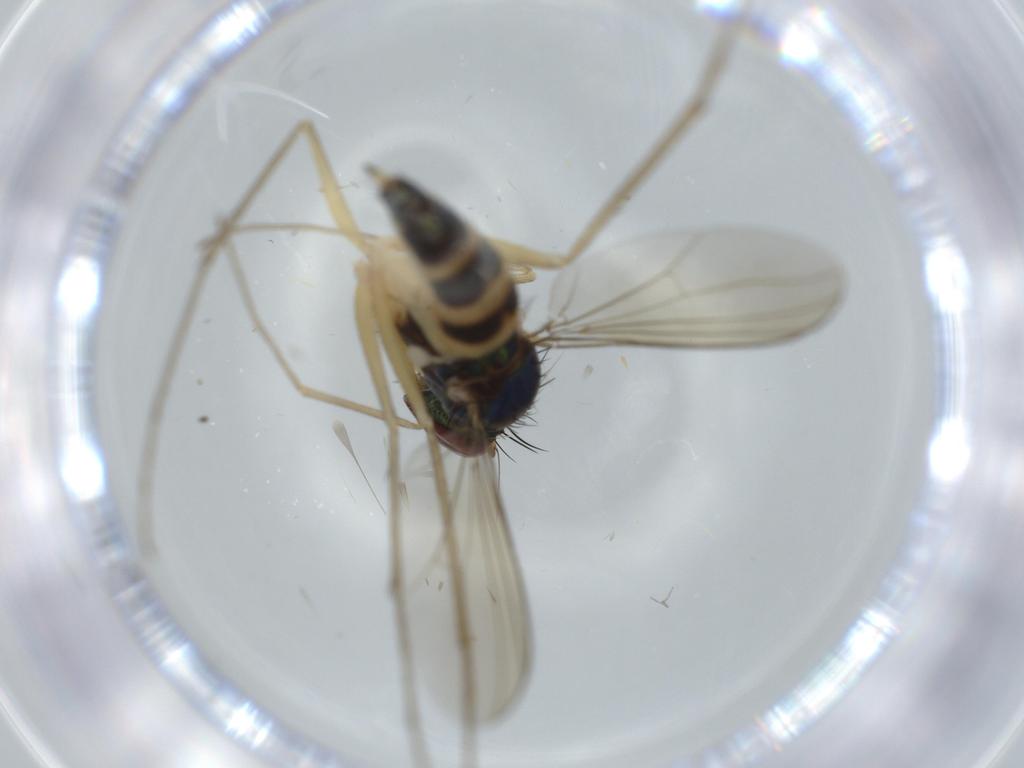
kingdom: Animalia
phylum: Arthropoda
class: Insecta
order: Diptera
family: Dolichopodidae
